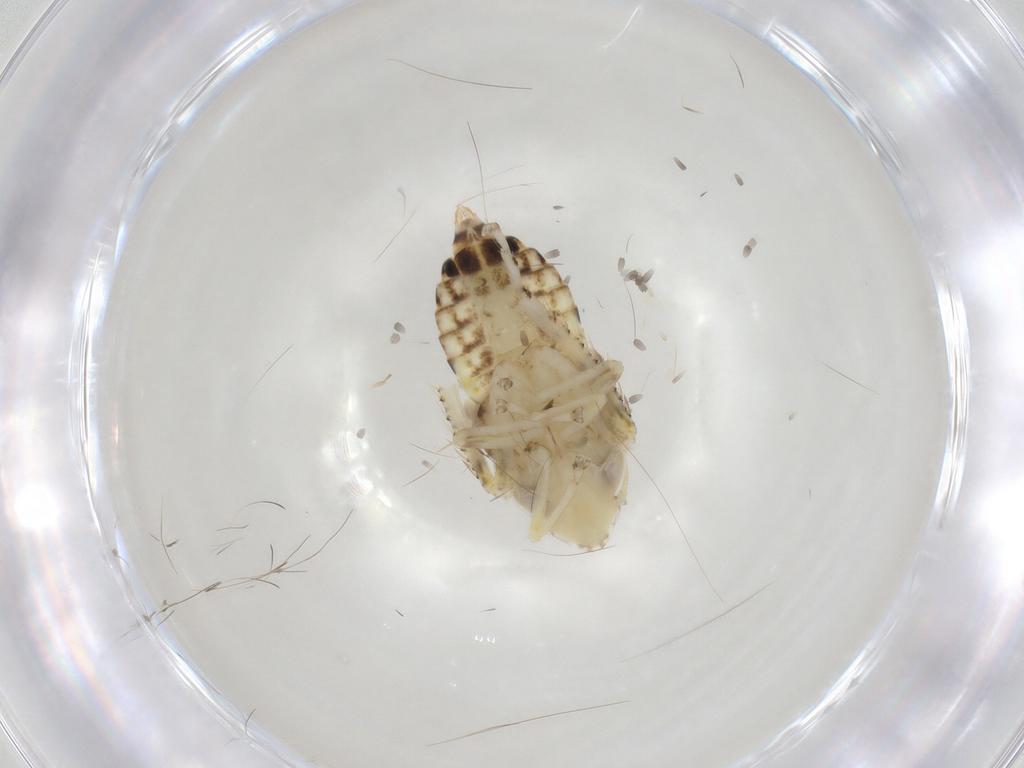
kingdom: Animalia
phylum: Arthropoda
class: Insecta
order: Hemiptera
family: Cicadellidae
